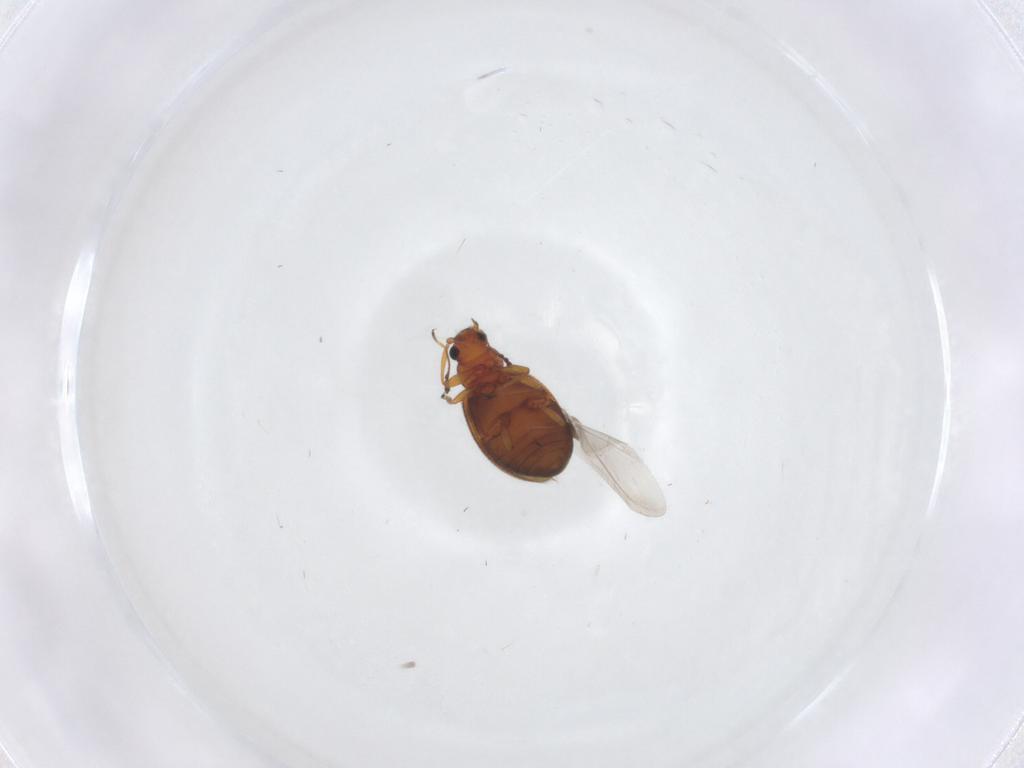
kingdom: Animalia
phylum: Arthropoda
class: Insecta
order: Coleoptera
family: Latridiidae
